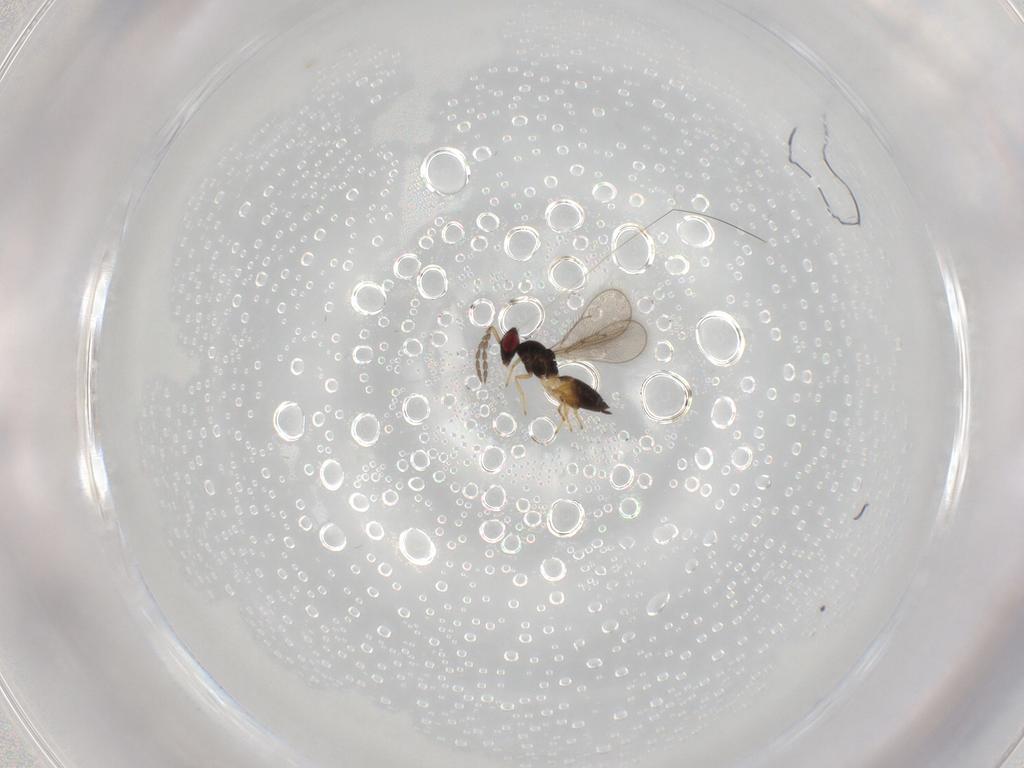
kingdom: Animalia
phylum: Arthropoda
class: Insecta
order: Hymenoptera
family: Eulophidae
